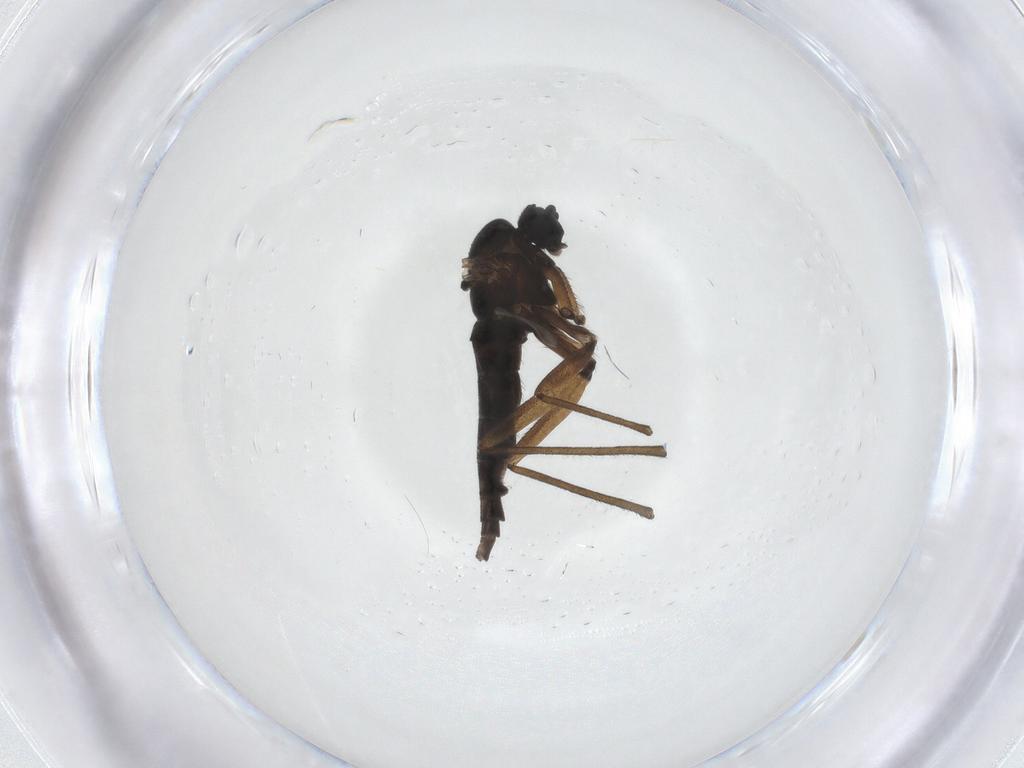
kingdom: Animalia
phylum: Arthropoda
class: Insecta
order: Diptera
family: Sciaridae
